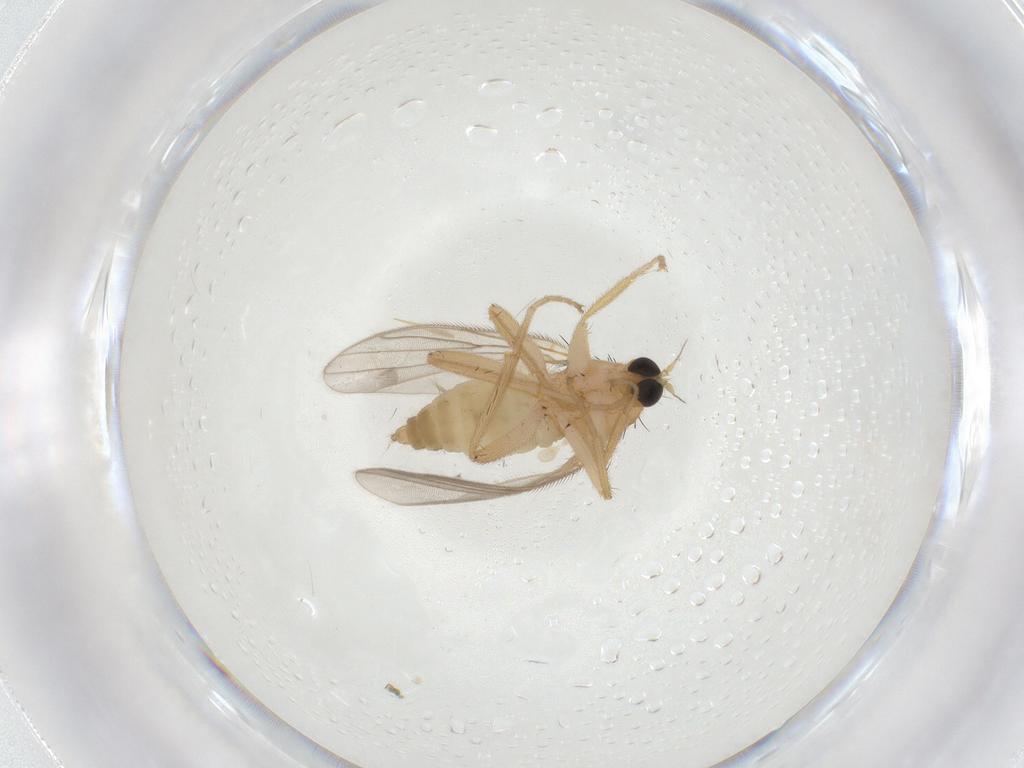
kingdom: Animalia
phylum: Arthropoda
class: Insecta
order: Diptera
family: Hybotidae
